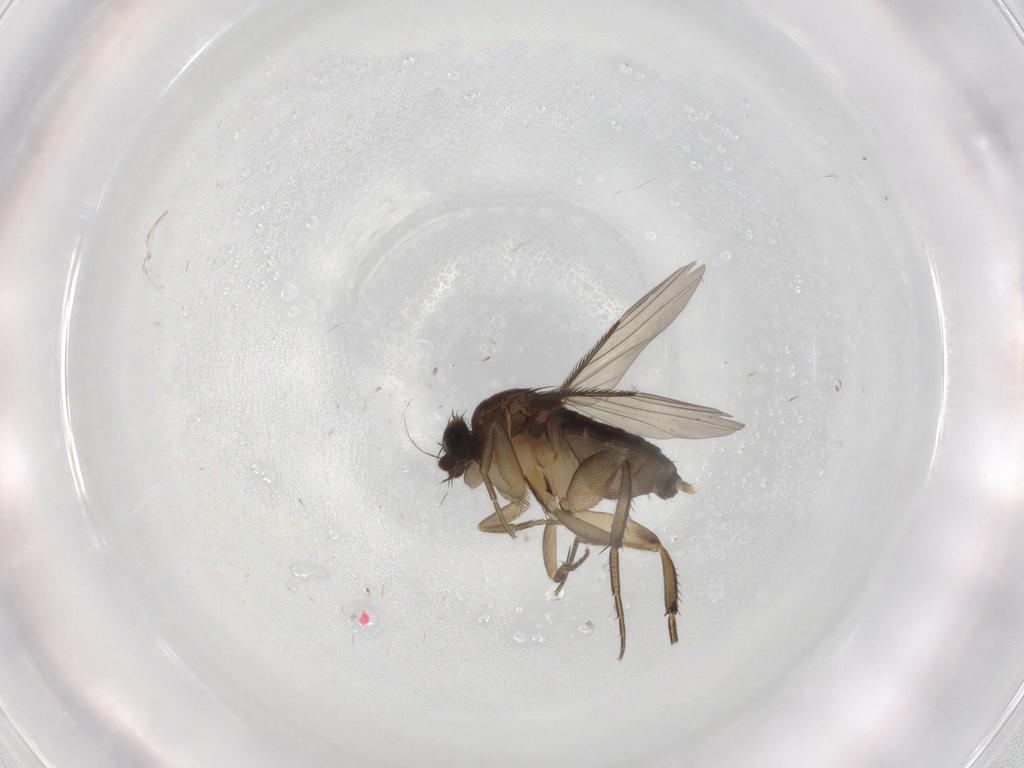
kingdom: Animalia
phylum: Arthropoda
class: Insecta
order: Diptera
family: Phoridae
